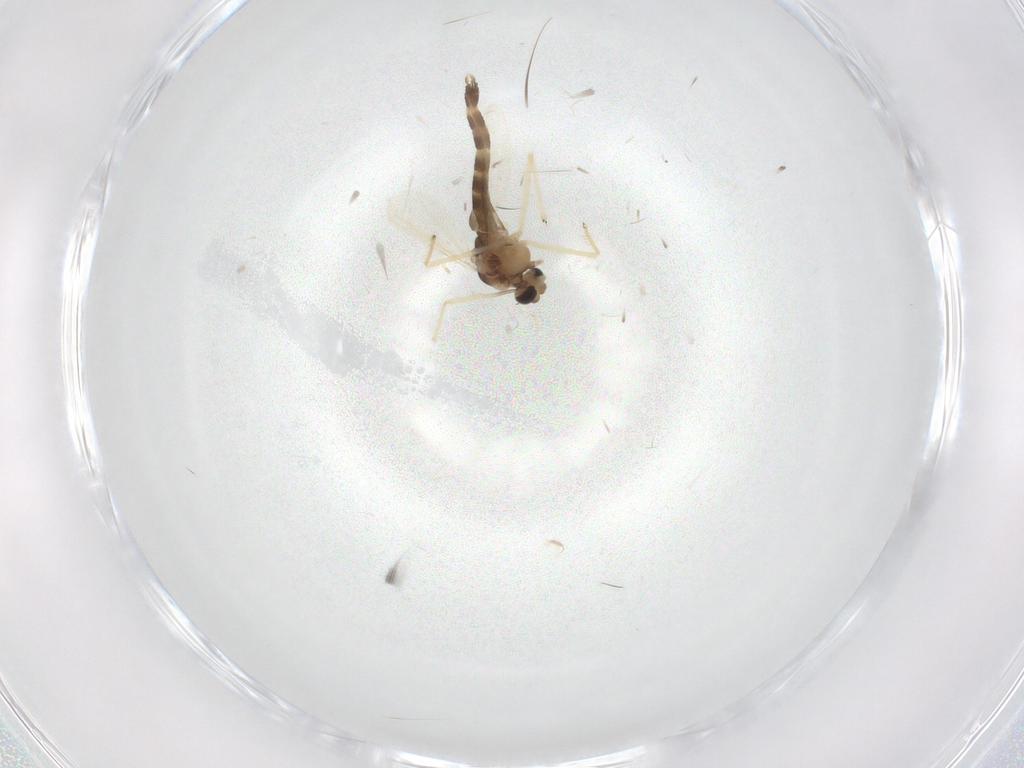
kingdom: Animalia
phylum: Arthropoda
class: Insecta
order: Diptera
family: Chironomidae
